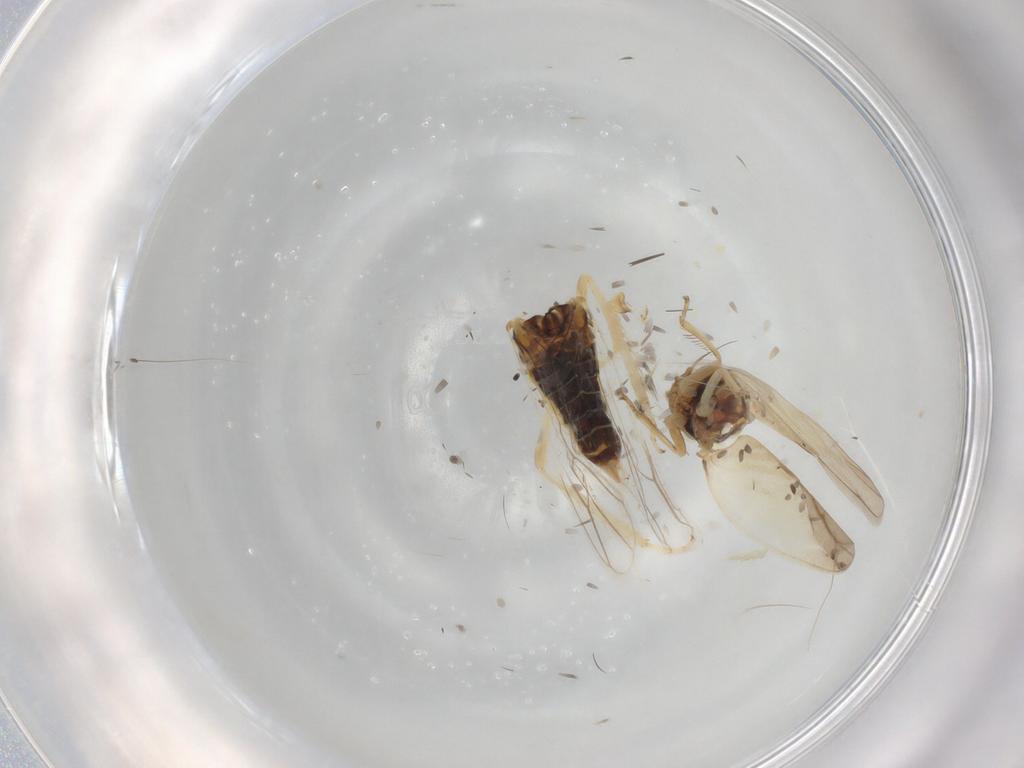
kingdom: Animalia
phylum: Arthropoda
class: Insecta
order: Hemiptera
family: Cicadellidae
